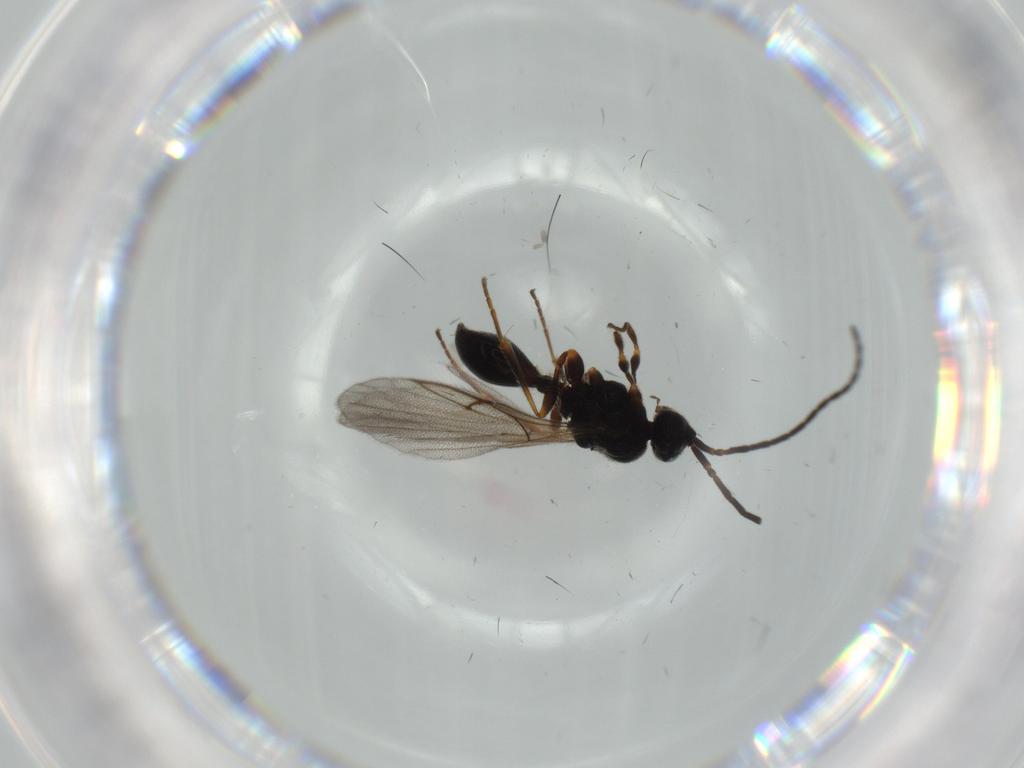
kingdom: Animalia
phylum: Arthropoda
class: Insecta
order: Hymenoptera
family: Diapriidae
